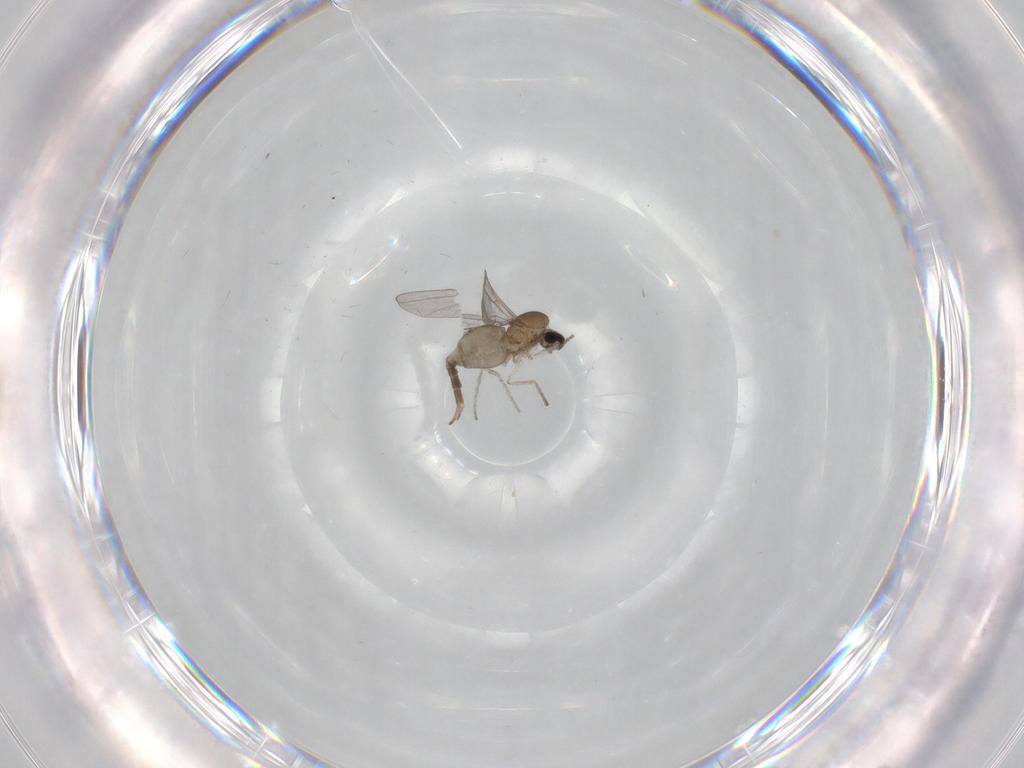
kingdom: Animalia
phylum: Arthropoda
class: Insecta
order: Diptera
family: Cecidomyiidae
